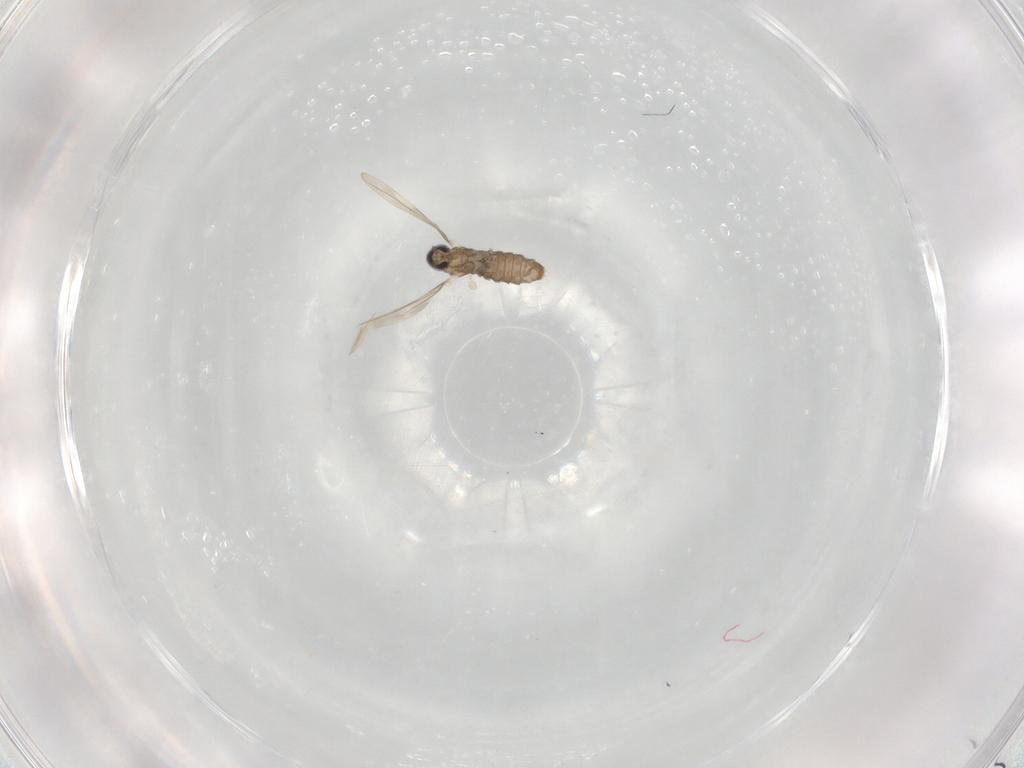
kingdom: Animalia
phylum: Arthropoda
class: Insecta
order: Diptera
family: Cecidomyiidae
